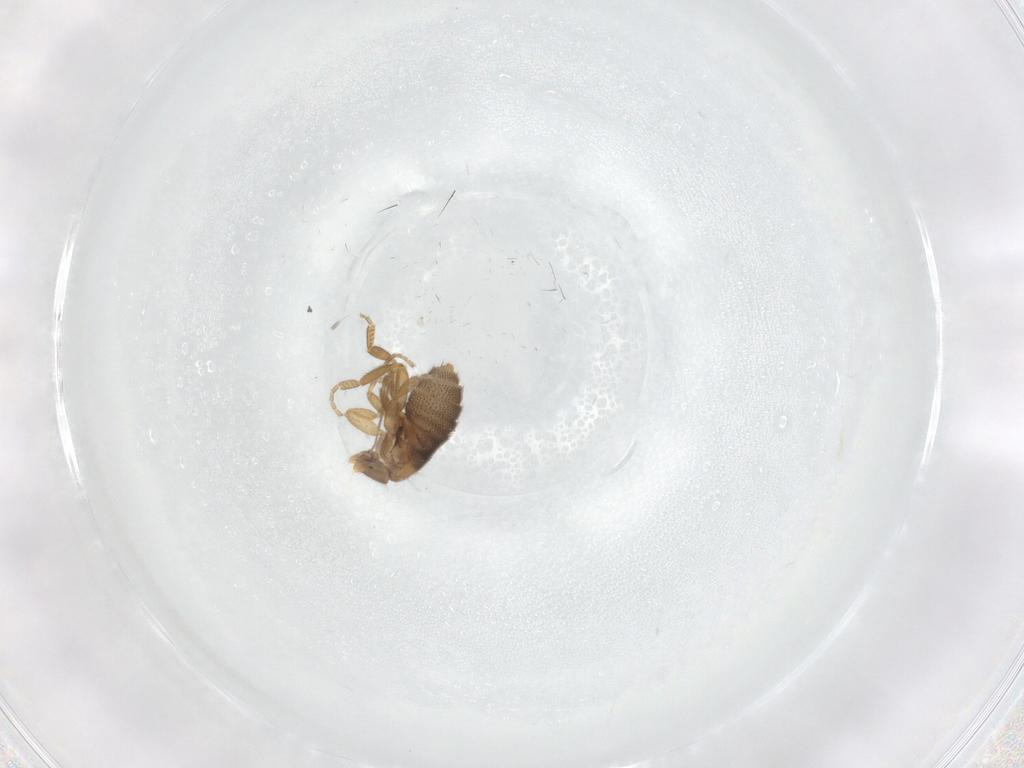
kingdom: Animalia
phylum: Arthropoda
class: Insecta
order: Diptera
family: Phoridae
